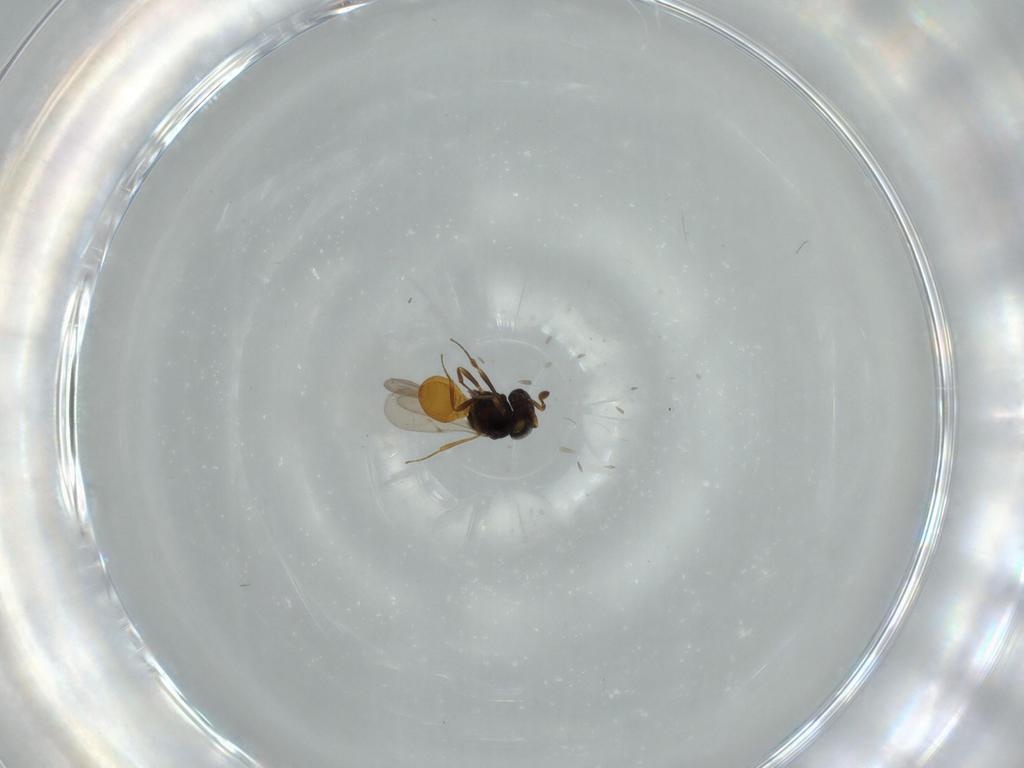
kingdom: Animalia
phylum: Arthropoda
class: Insecta
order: Hymenoptera
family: Scelionidae
